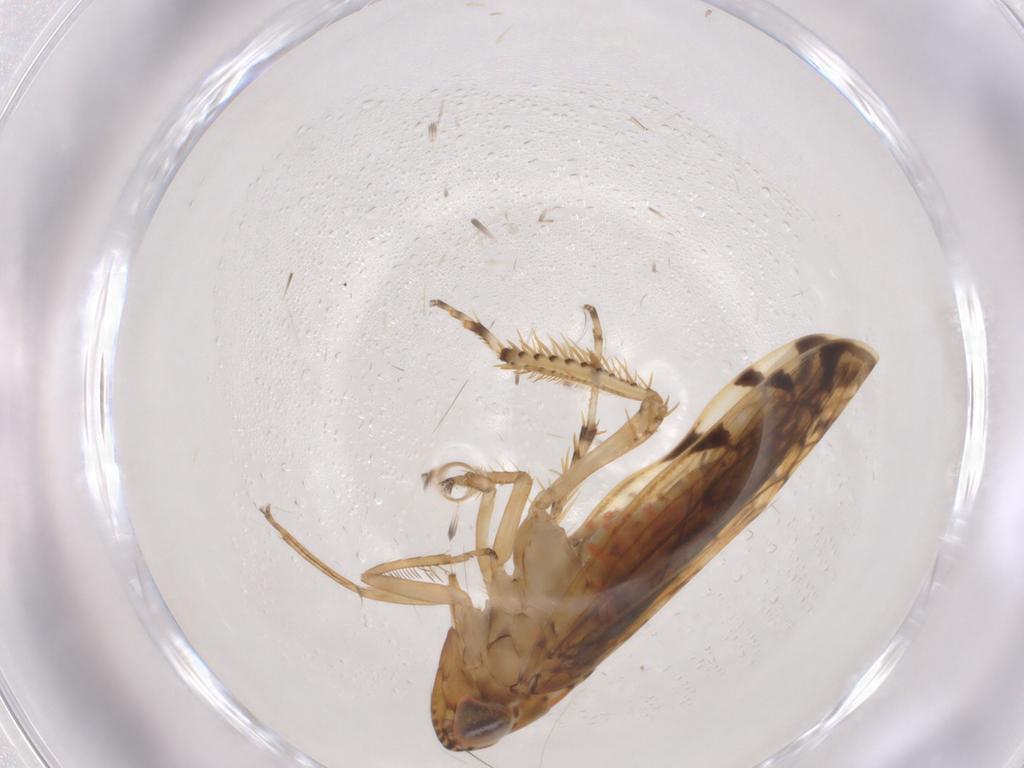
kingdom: Animalia
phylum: Arthropoda
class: Insecta
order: Hemiptera
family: Cicadellidae
